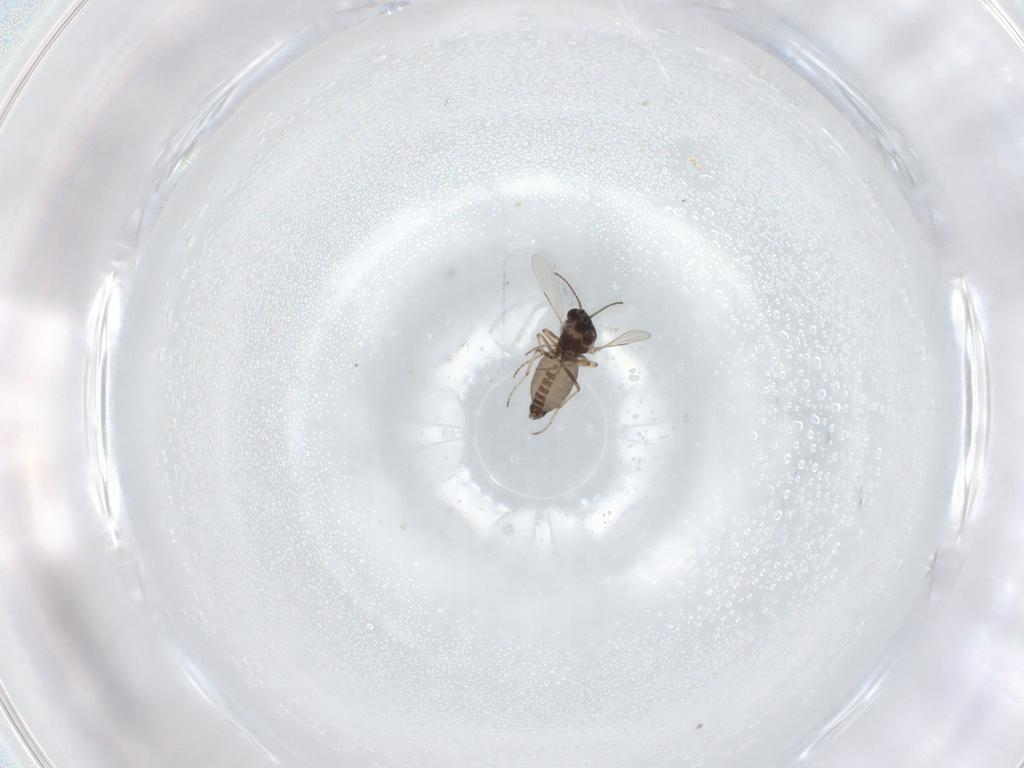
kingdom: Animalia
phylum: Arthropoda
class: Insecta
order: Diptera
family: Ceratopogonidae
